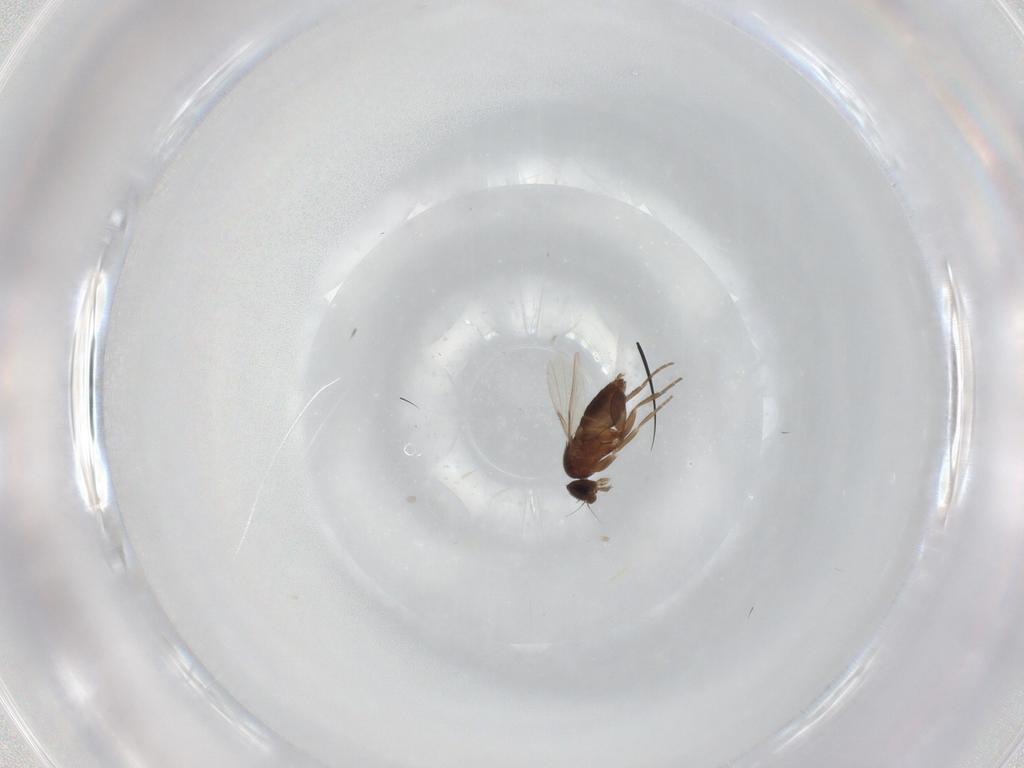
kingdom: Animalia
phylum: Arthropoda
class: Insecta
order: Diptera
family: Ceratopogonidae
